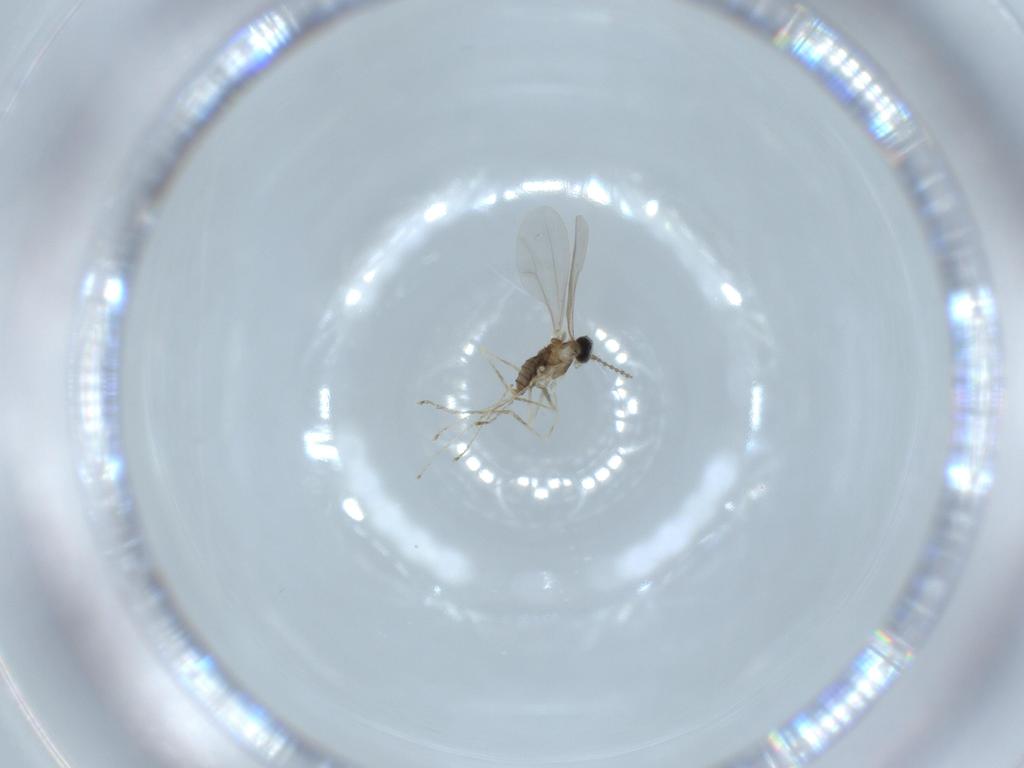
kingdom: Animalia
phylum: Arthropoda
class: Insecta
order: Diptera
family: Cecidomyiidae
